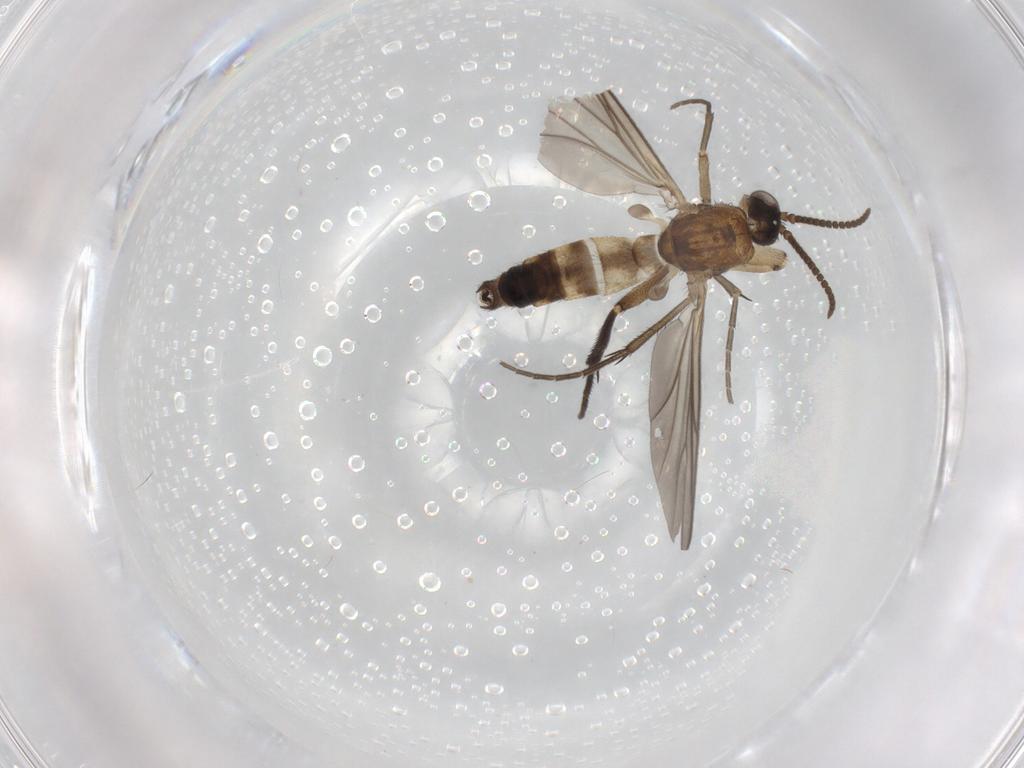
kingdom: Animalia
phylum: Arthropoda
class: Insecta
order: Diptera
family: Mycetophilidae
